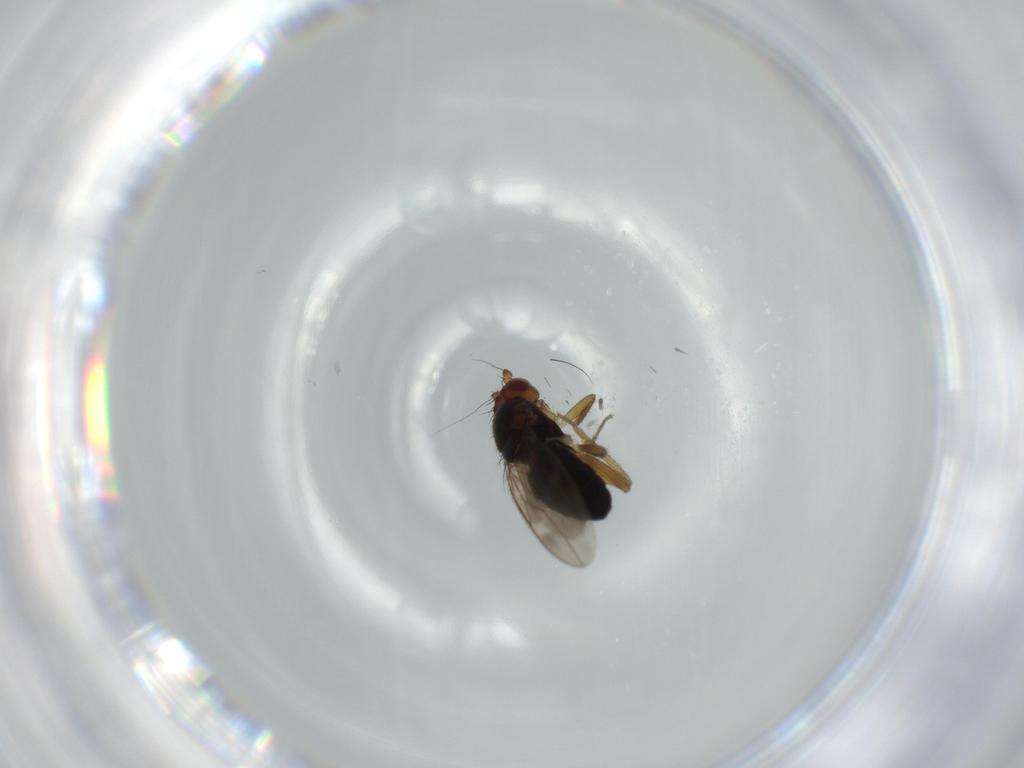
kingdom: Animalia
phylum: Arthropoda
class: Insecta
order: Diptera
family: Sphaeroceridae
